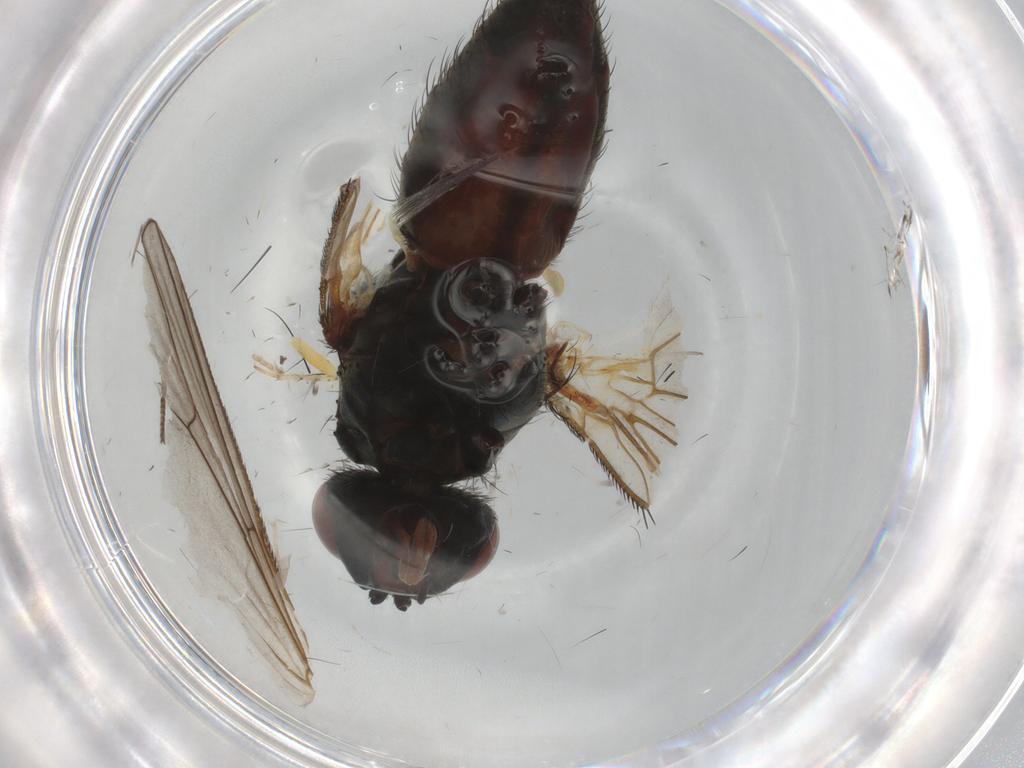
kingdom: Animalia
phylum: Arthropoda
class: Insecta
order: Diptera
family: Anthomyiidae
